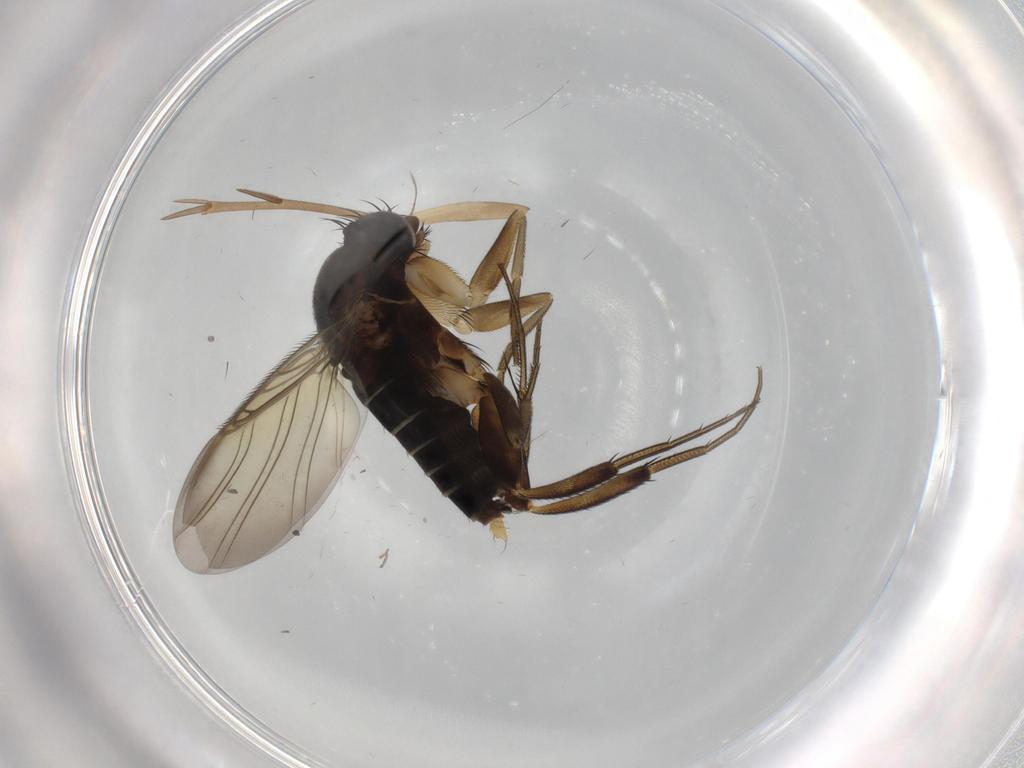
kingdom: Animalia
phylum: Arthropoda
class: Insecta
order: Diptera
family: Phoridae
